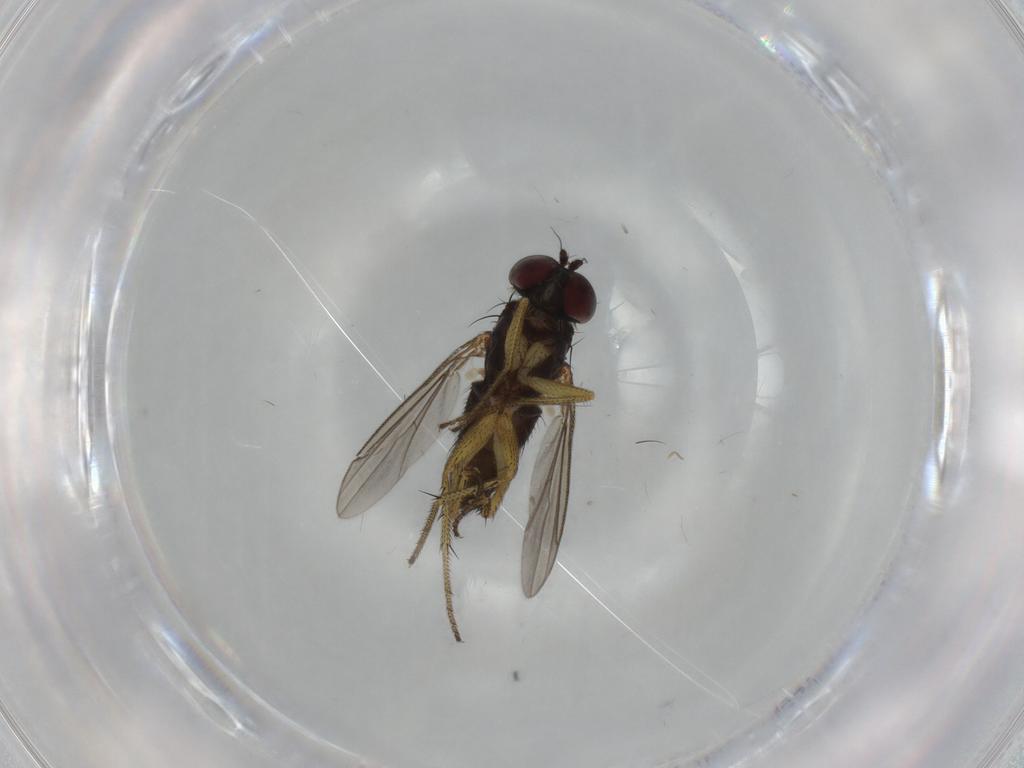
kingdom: Animalia
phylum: Arthropoda
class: Insecta
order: Diptera
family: Dolichopodidae
